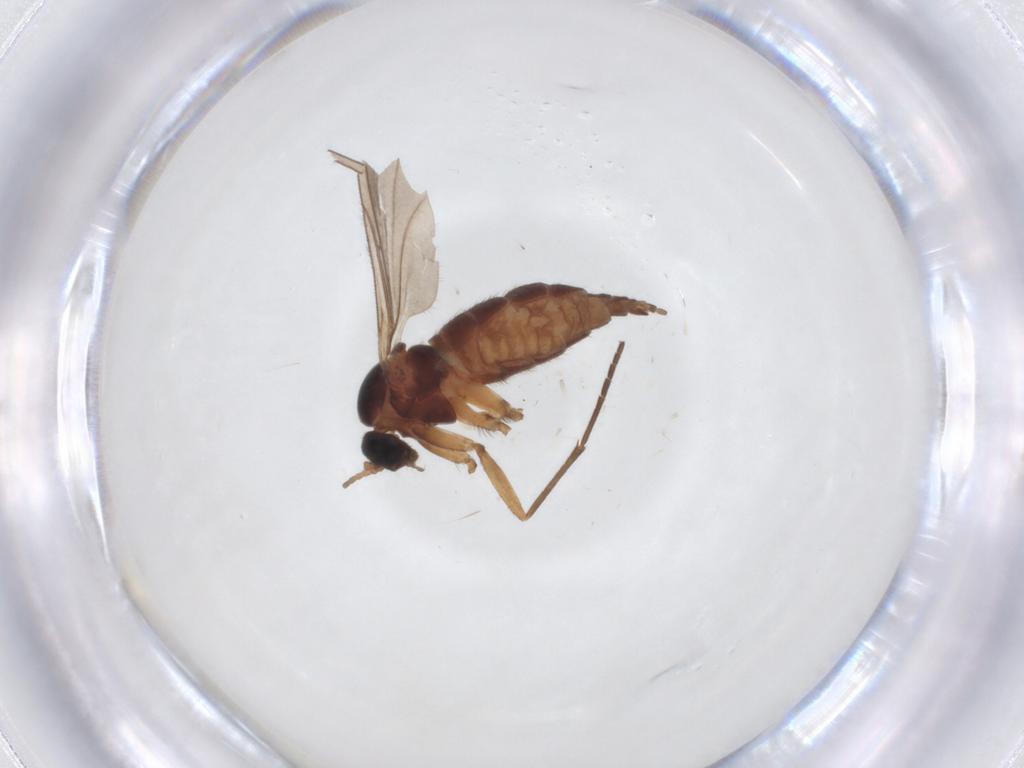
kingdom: Animalia
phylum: Arthropoda
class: Insecta
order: Diptera
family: Sciaridae
